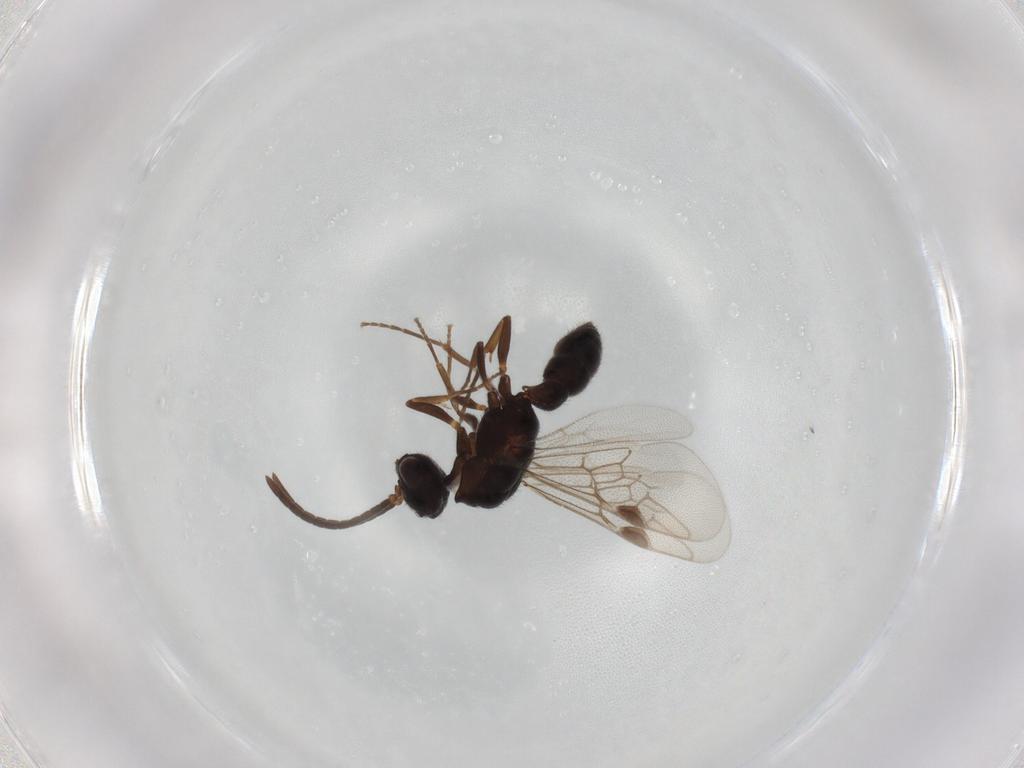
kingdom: Animalia
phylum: Arthropoda
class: Insecta
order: Hymenoptera
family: Formicidae
